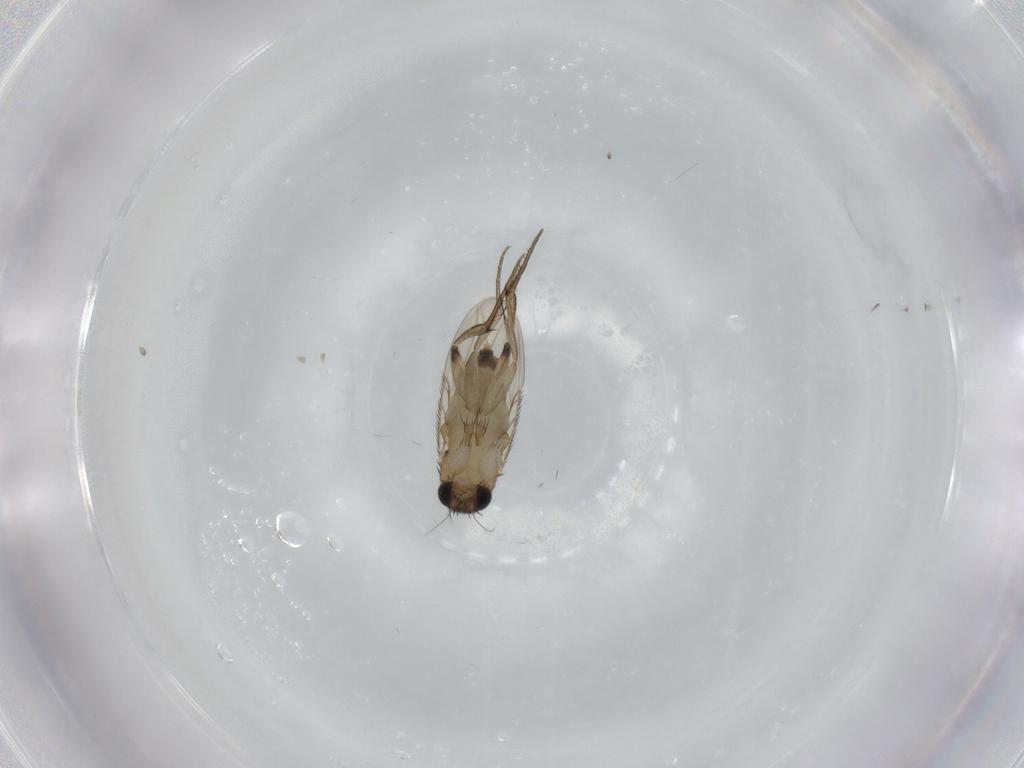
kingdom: Animalia
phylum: Arthropoda
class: Insecta
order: Diptera
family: Phoridae
